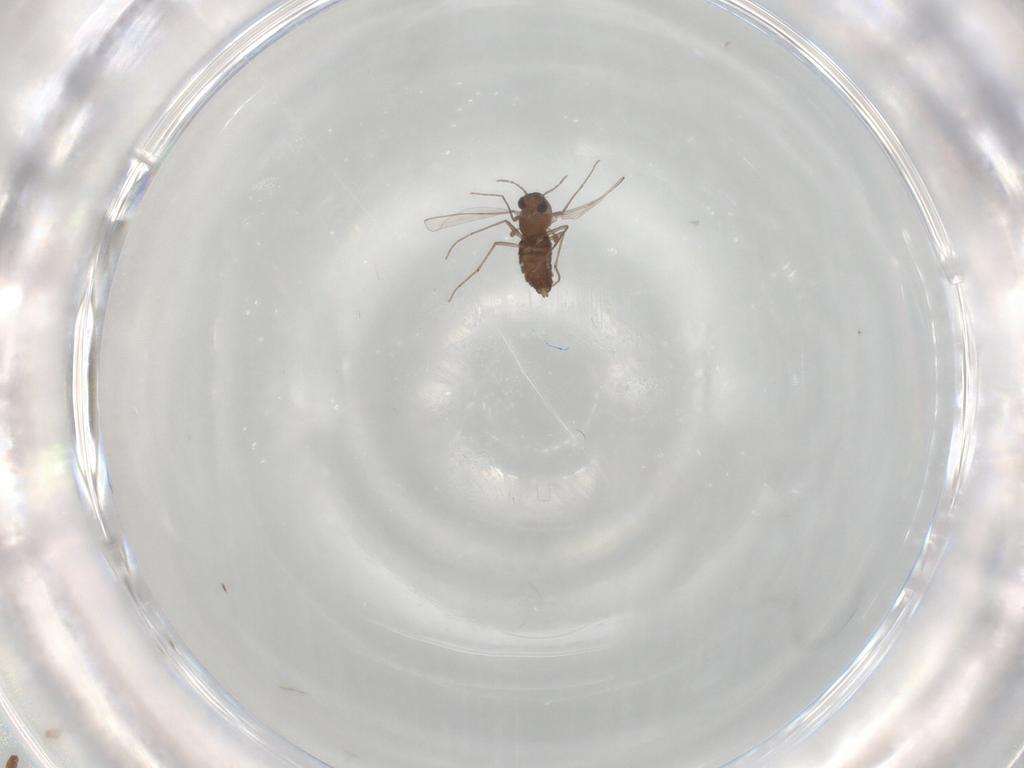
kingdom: Animalia
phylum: Arthropoda
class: Insecta
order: Diptera
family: Chironomidae
